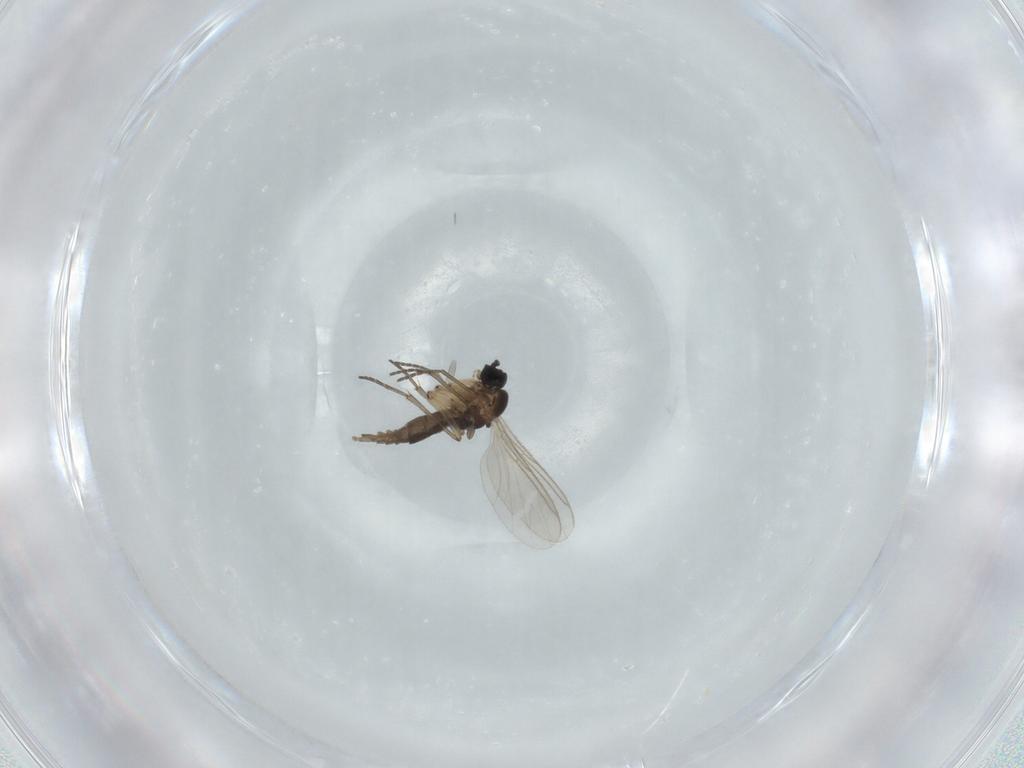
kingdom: Animalia
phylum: Arthropoda
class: Insecta
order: Diptera
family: Sciaridae
